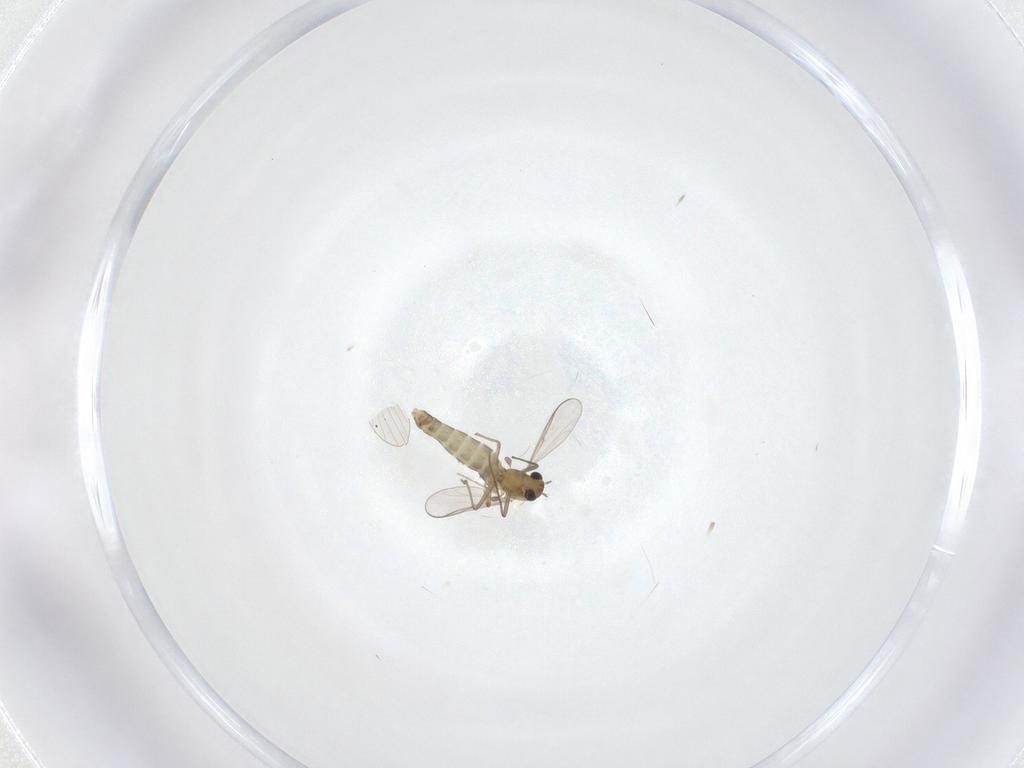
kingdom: Animalia
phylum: Arthropoda
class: Insecta
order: Diptera
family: Chironomidae
